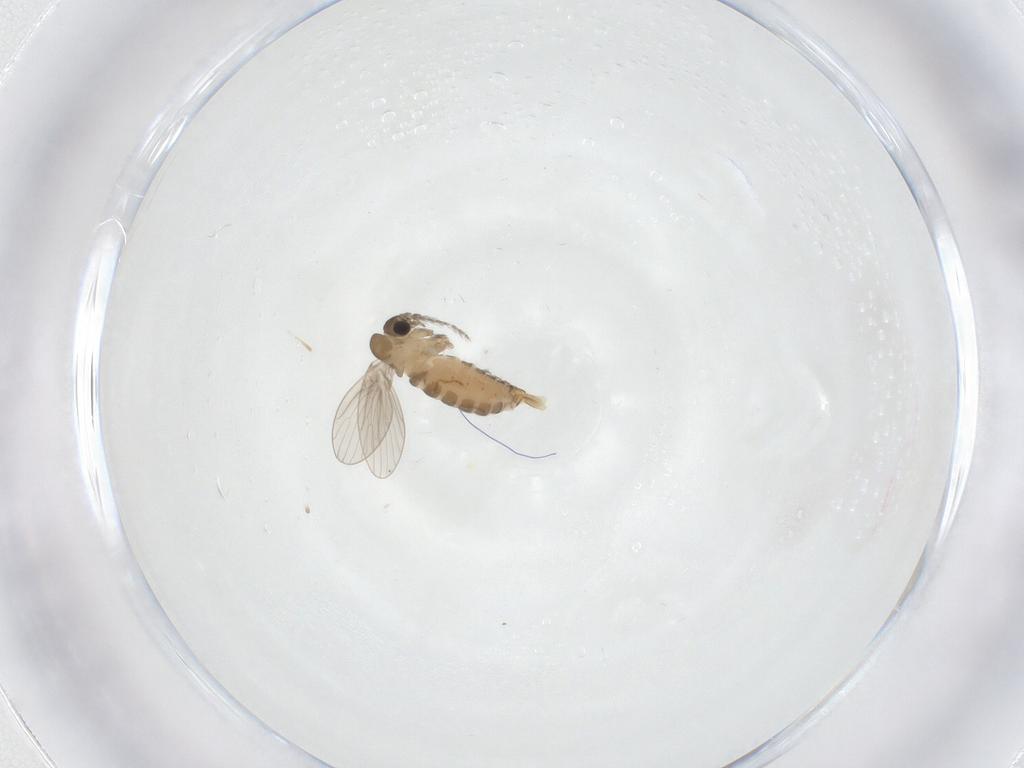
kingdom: Animalia
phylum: Arthropoda
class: Insecta
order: Diptera
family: Psychodidae
